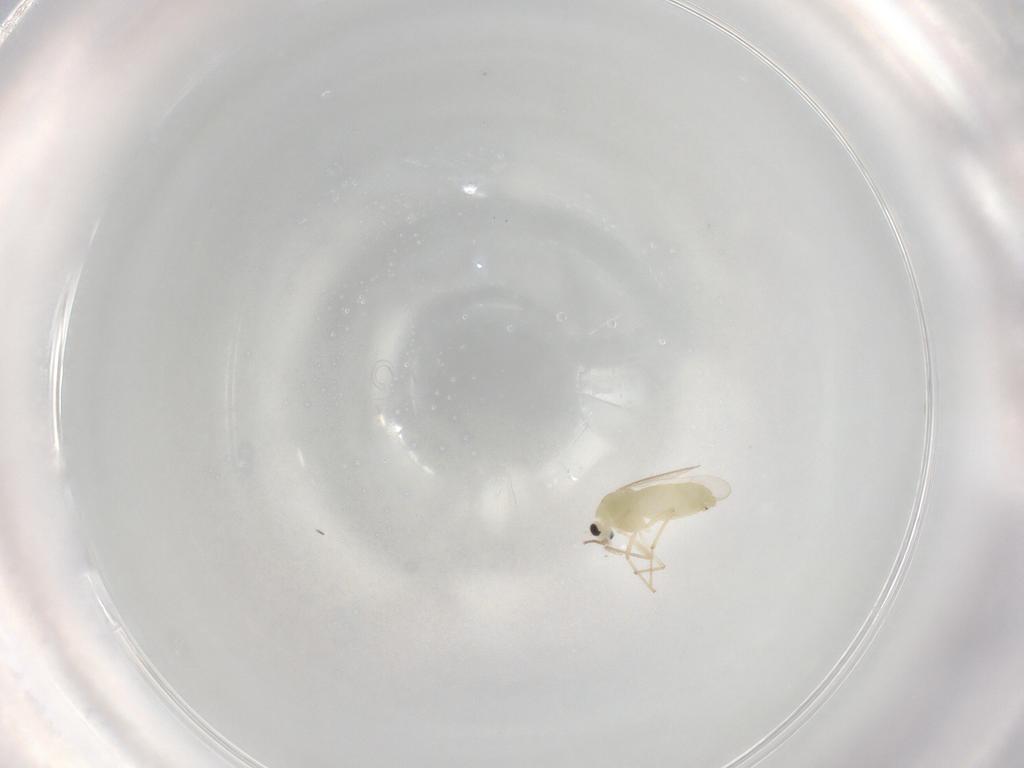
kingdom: Animalia
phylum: Arthropoda
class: Insecta
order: Diptera
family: Chironomidae
